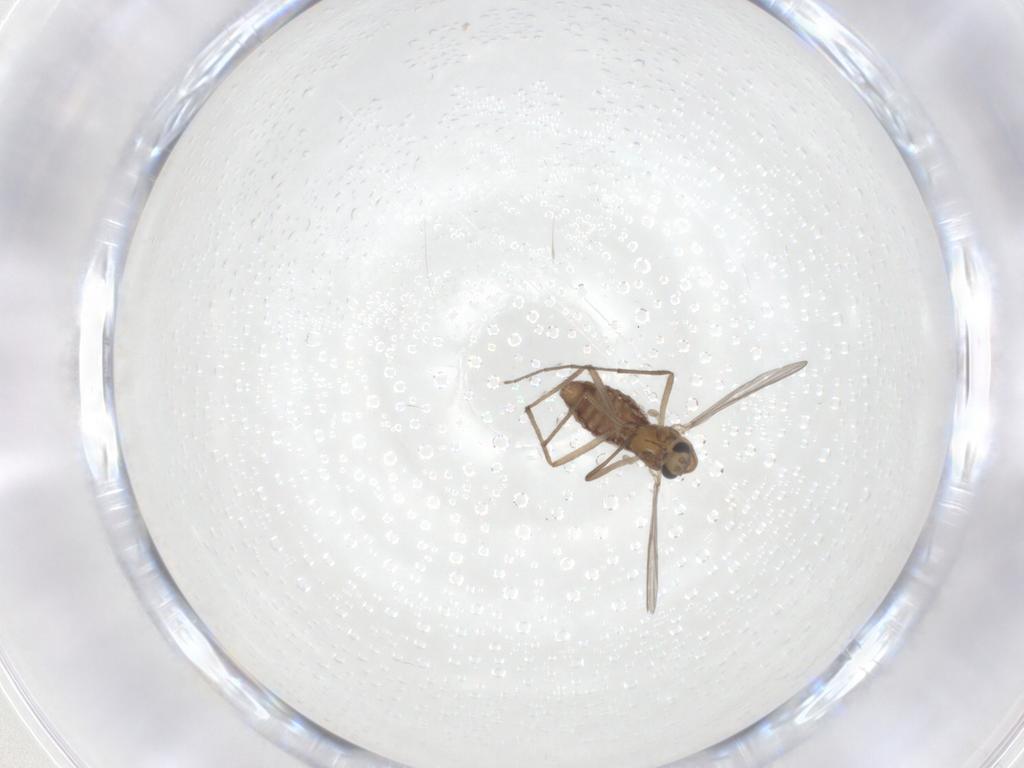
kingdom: Animalia
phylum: Arthropoda
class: Insecta
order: Diptera
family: Chironomidae
